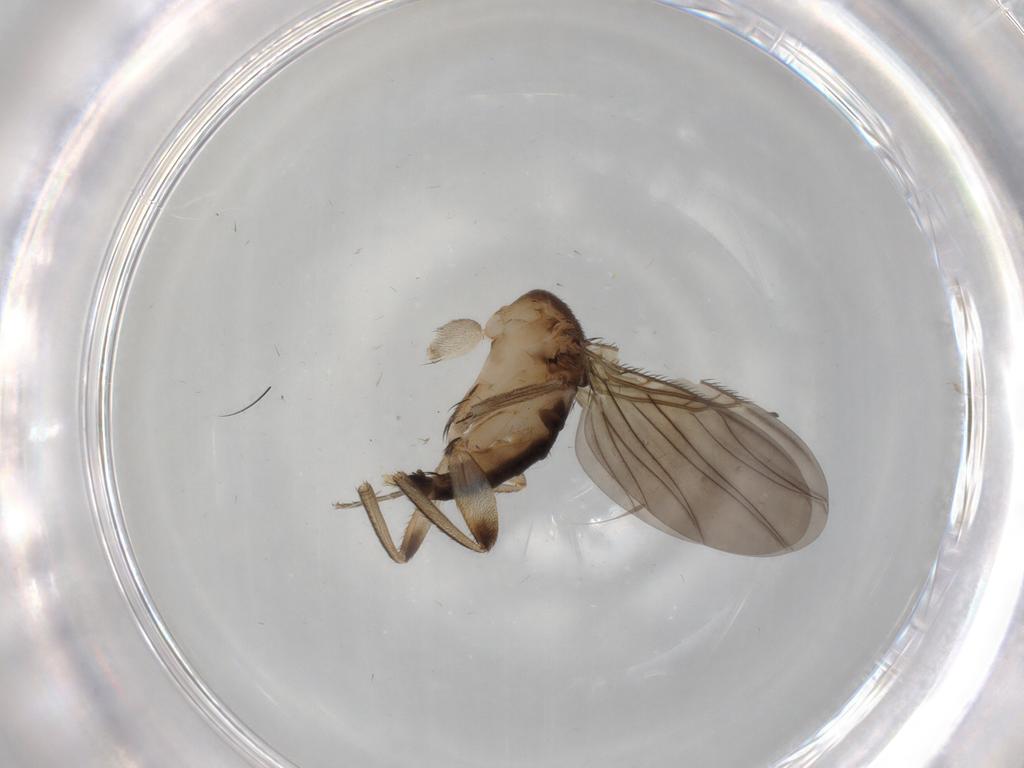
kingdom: Animalia
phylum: Arthropoda
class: Insecta
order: Diptera
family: Phoridae
